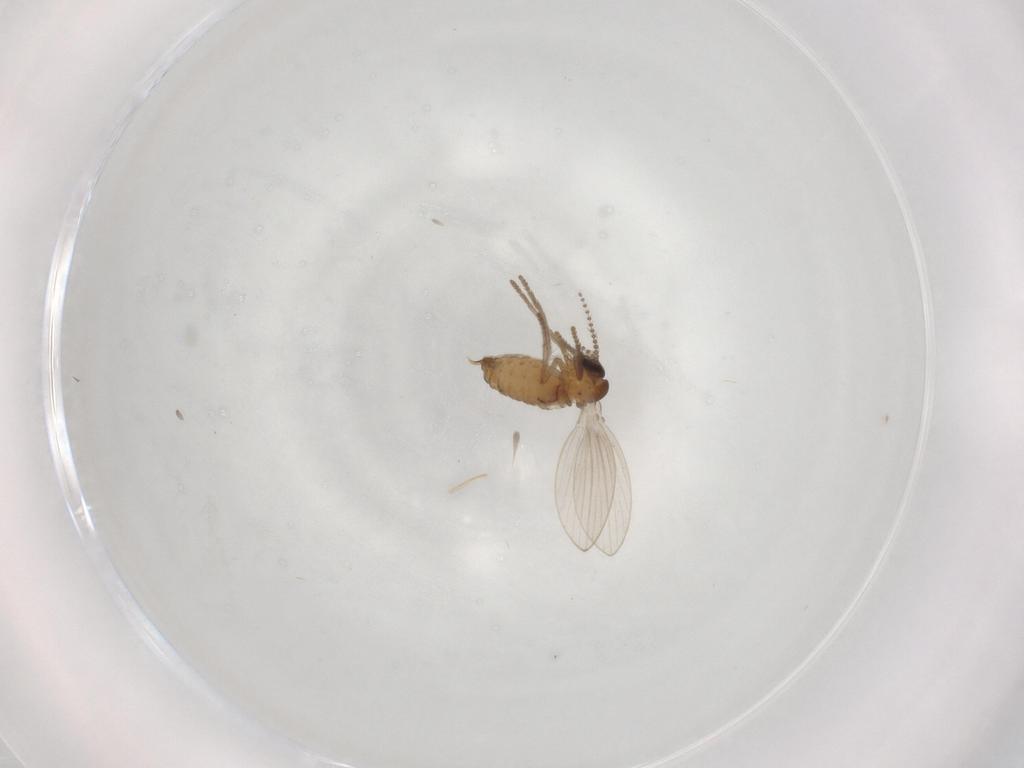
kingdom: Animalia
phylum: Arthropoda
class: Insecta
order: Diptera
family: Psychodidae
